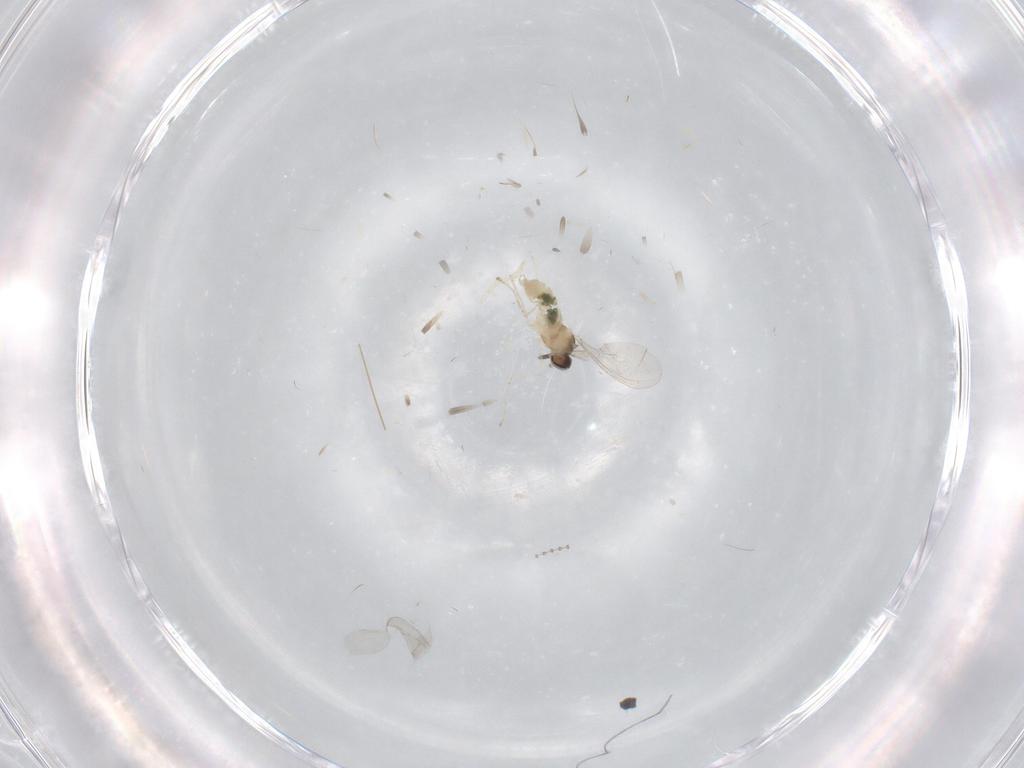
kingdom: Animalia
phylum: Arthropoda
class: Insecta
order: Diptera
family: Cecidomyiidae
